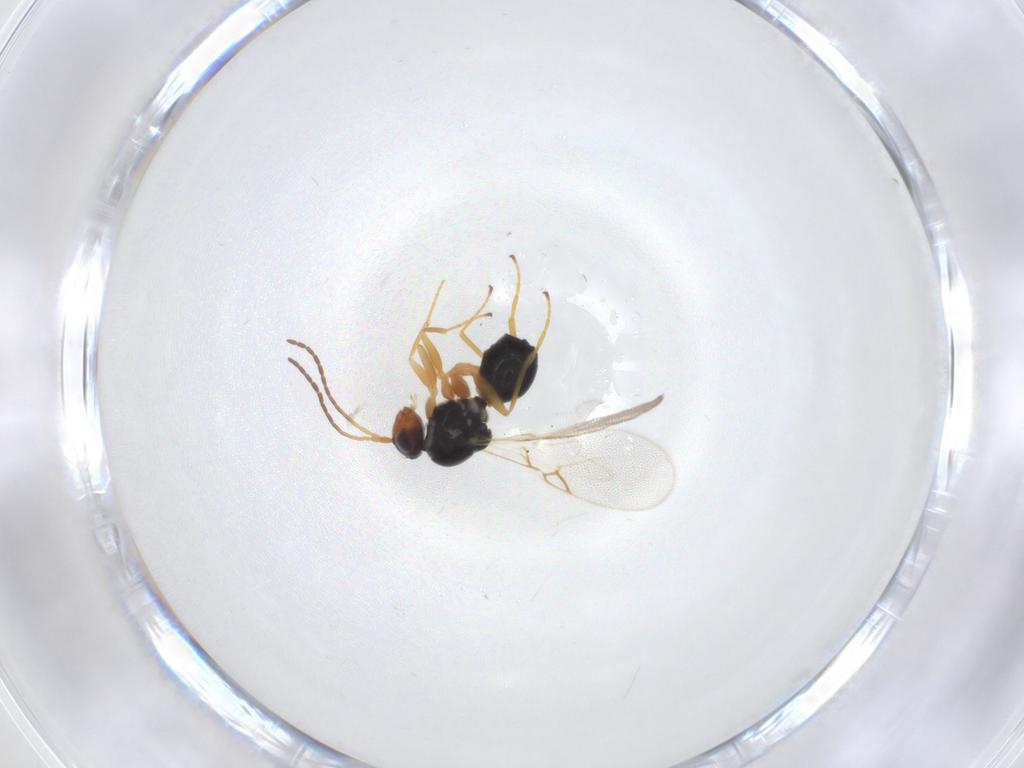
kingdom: Animalia
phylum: Arthropoda
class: Insecta
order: Hymenoptera
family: Figitidae
